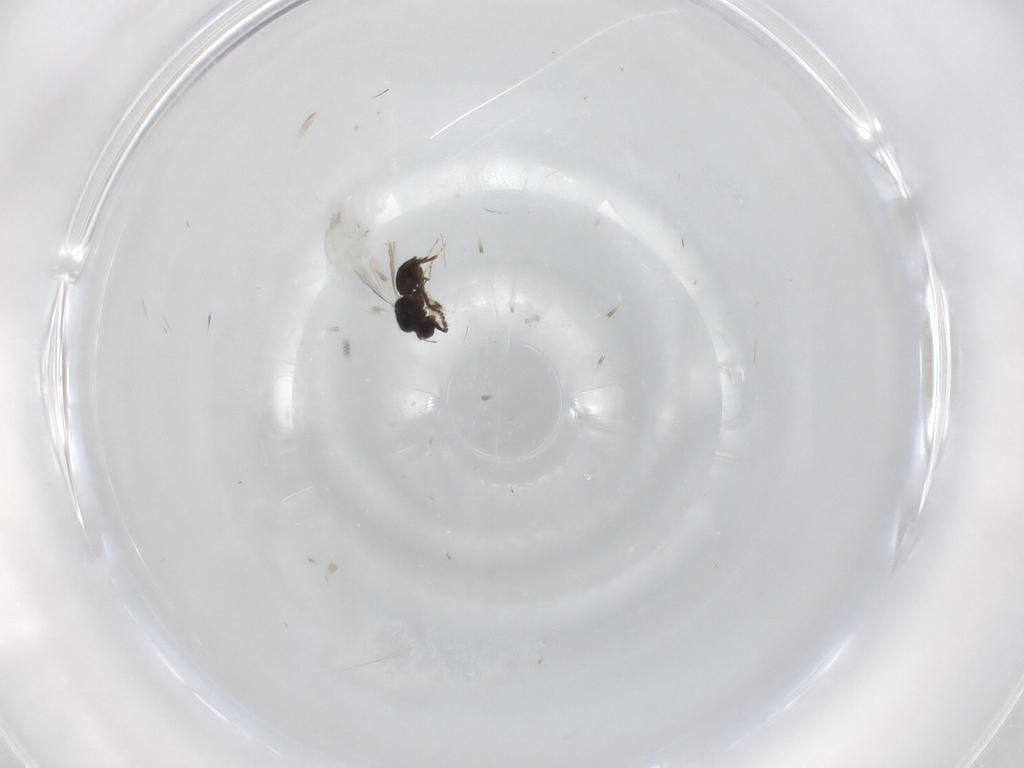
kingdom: Animalia
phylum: Arthropoda
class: Insecta
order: Hymenoptera
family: Formicidae
